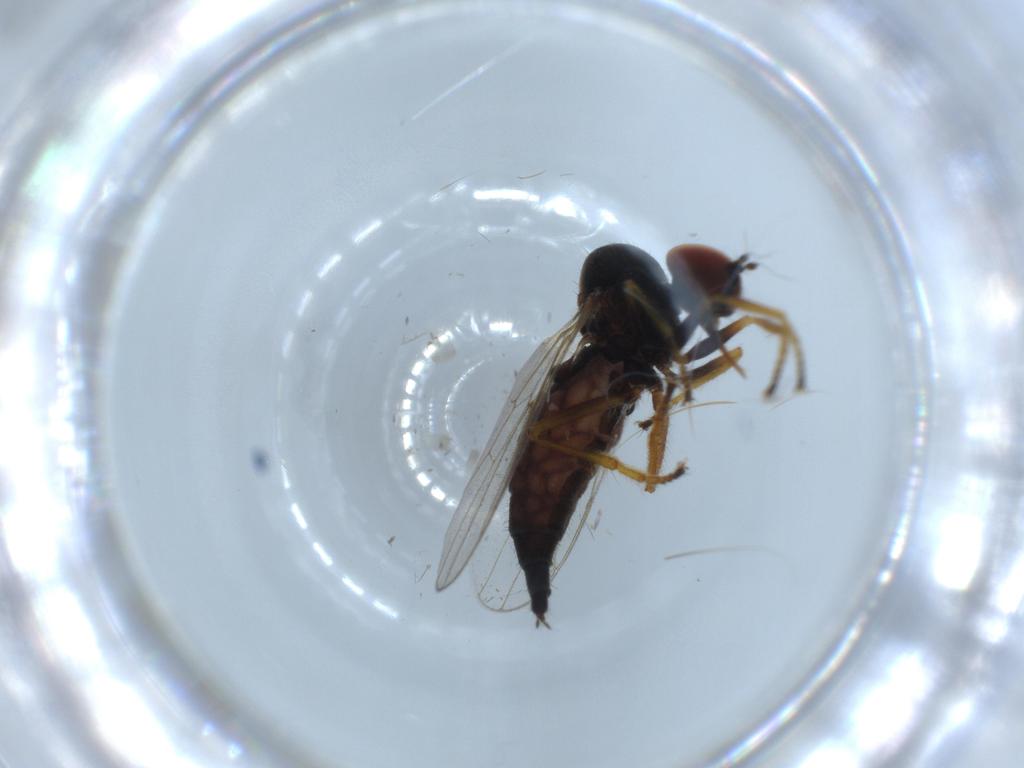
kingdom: Animalia
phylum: Arthropoda
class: Insecta
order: Diptera
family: Cecidomyiidae
